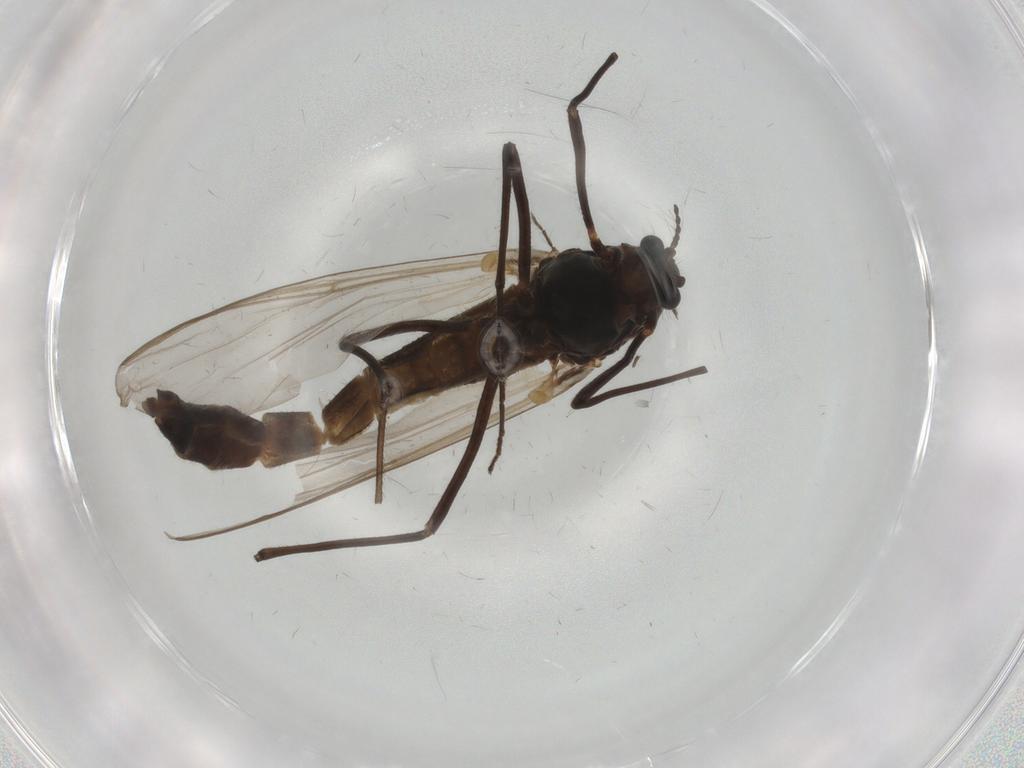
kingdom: Animalia
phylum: Arthropoda
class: Insecta
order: Diptera
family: Chironomidae
